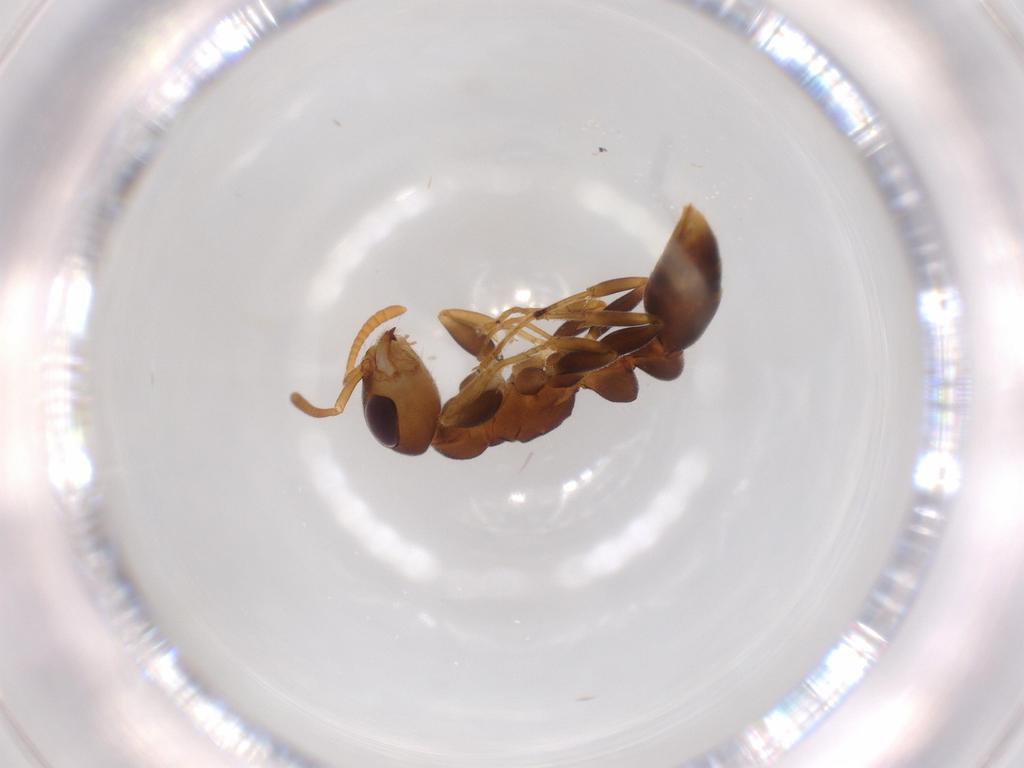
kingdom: Animalia
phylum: Arthropoda
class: Insecta
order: Hymenoptera
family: Formicidae
